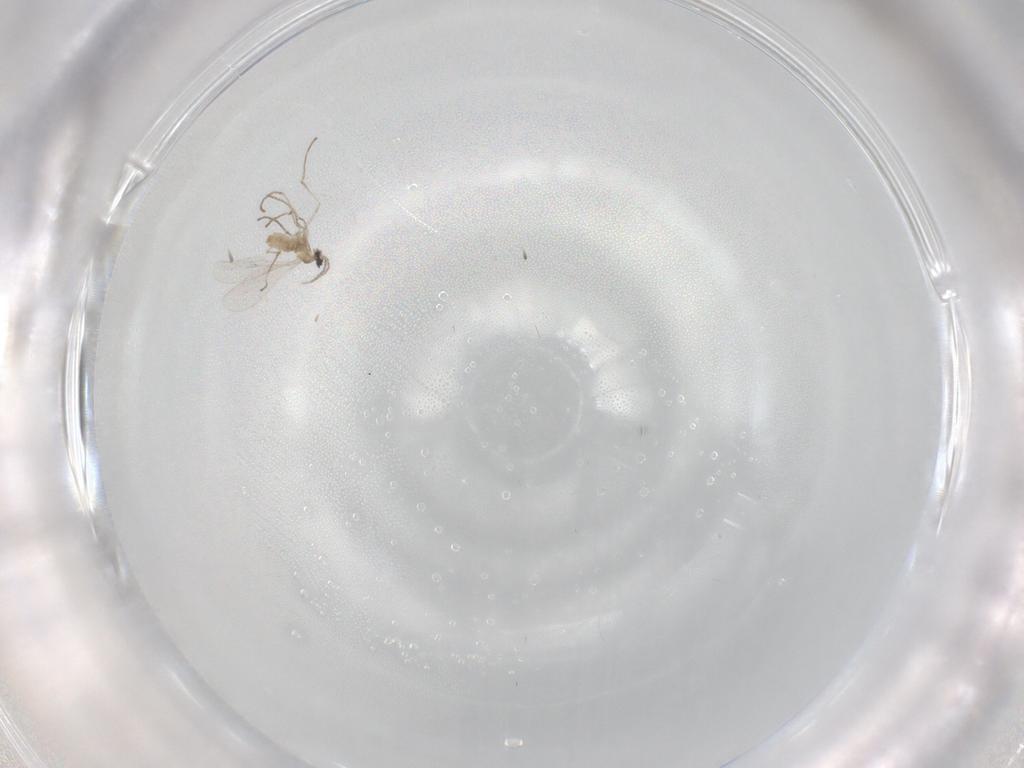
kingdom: Animalia
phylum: Arthropoda
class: Insecta
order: Diptera
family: Cecidomyiidae
